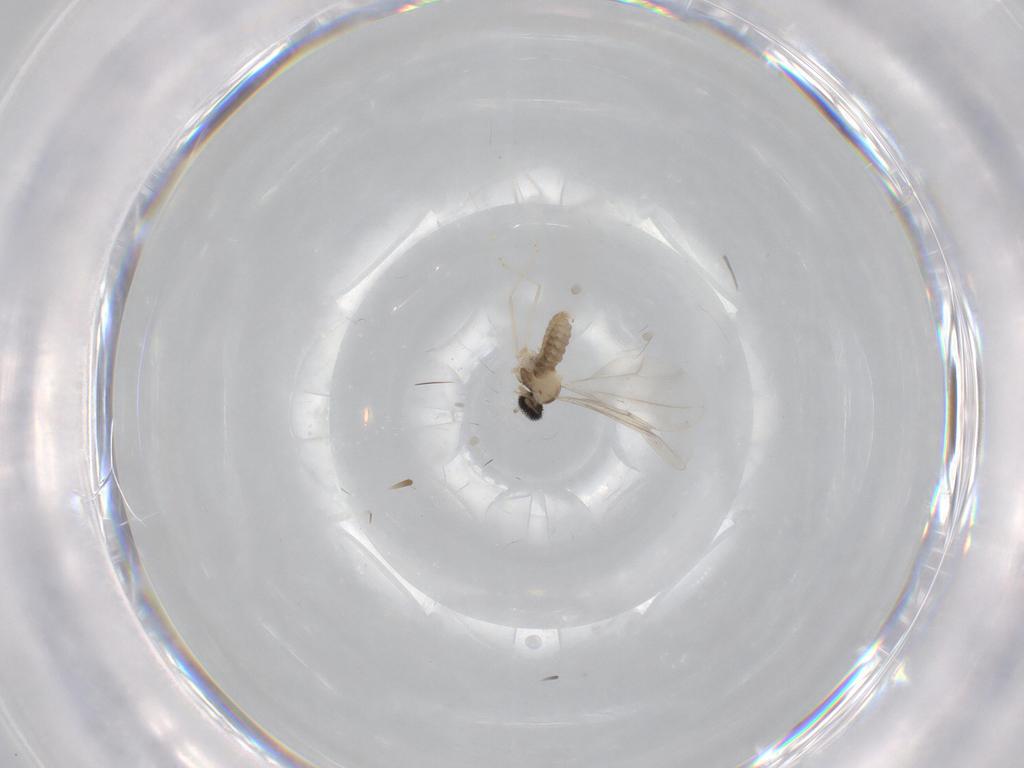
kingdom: Animalia
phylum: Arthropoda
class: Insecta
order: Diptera
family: Cecidomyiidae
